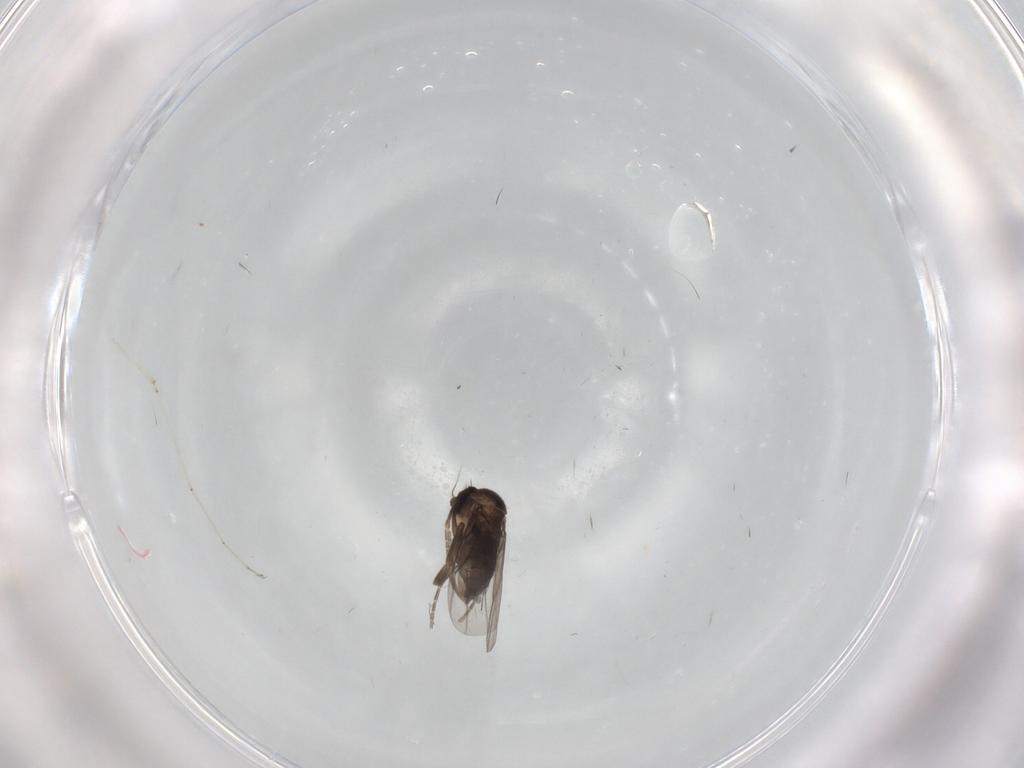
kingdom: Animalia
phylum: Arthropoda
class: Insecta
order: Diptera
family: Cecidomyiidae
